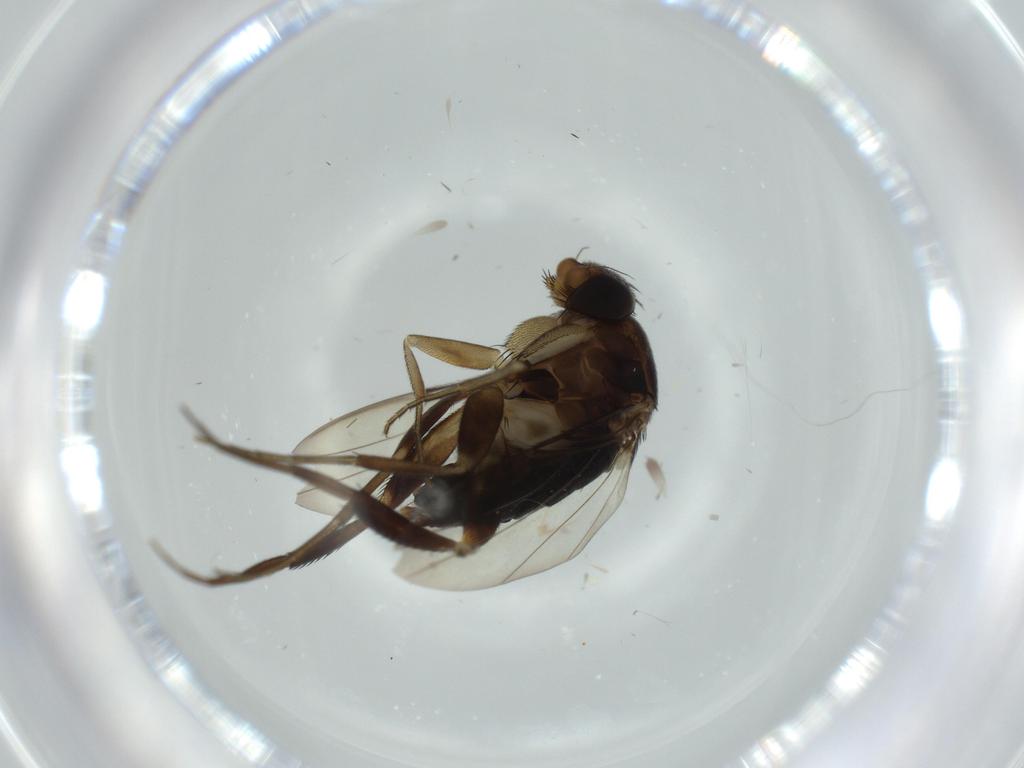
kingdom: Animalia
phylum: Arthropoda
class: Insecta
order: Diptera
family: Phoridae
